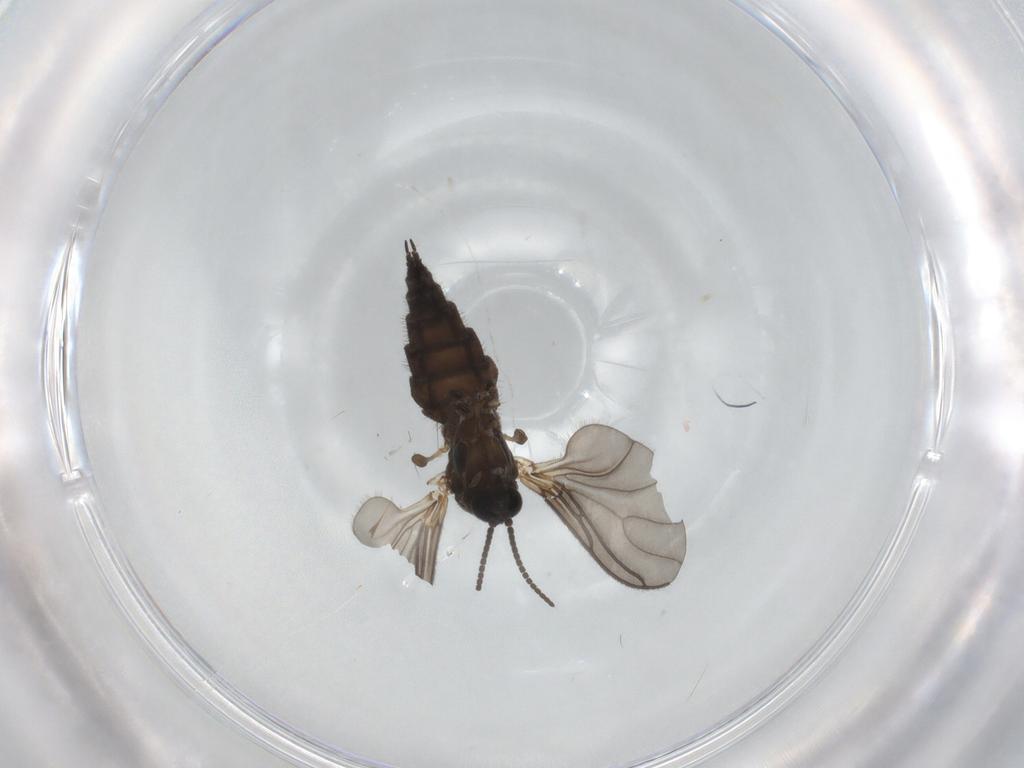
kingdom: Animalia
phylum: Arthropoda
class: Insecta
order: Diptera
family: Sciaridae
